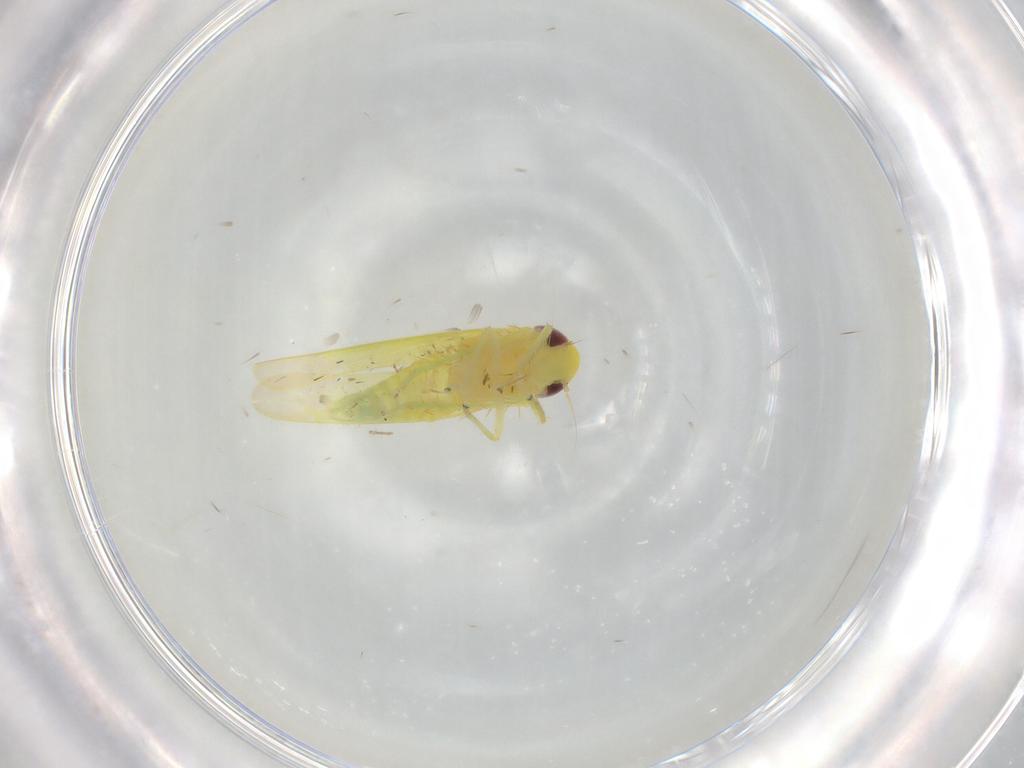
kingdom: Animalia
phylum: Arthropoda
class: Insecta
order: Hemiptera
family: Cicadellidae
